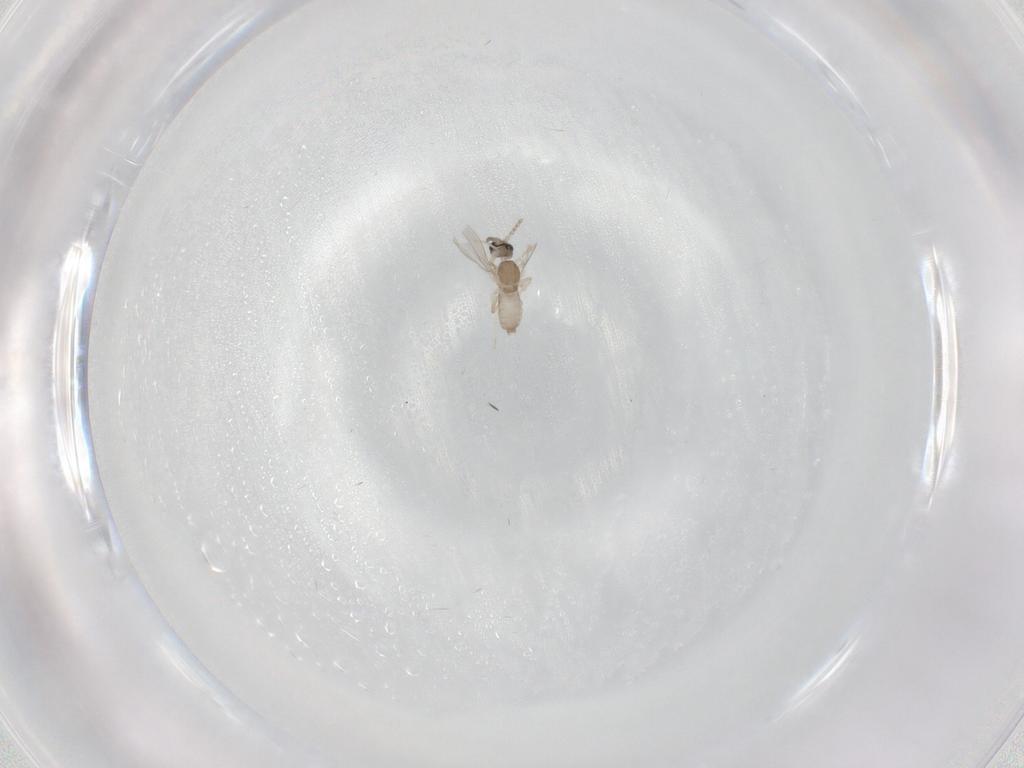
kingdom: Animalia
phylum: Arthropoda
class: Insecta
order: Diptera
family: Cecidomyiidae
